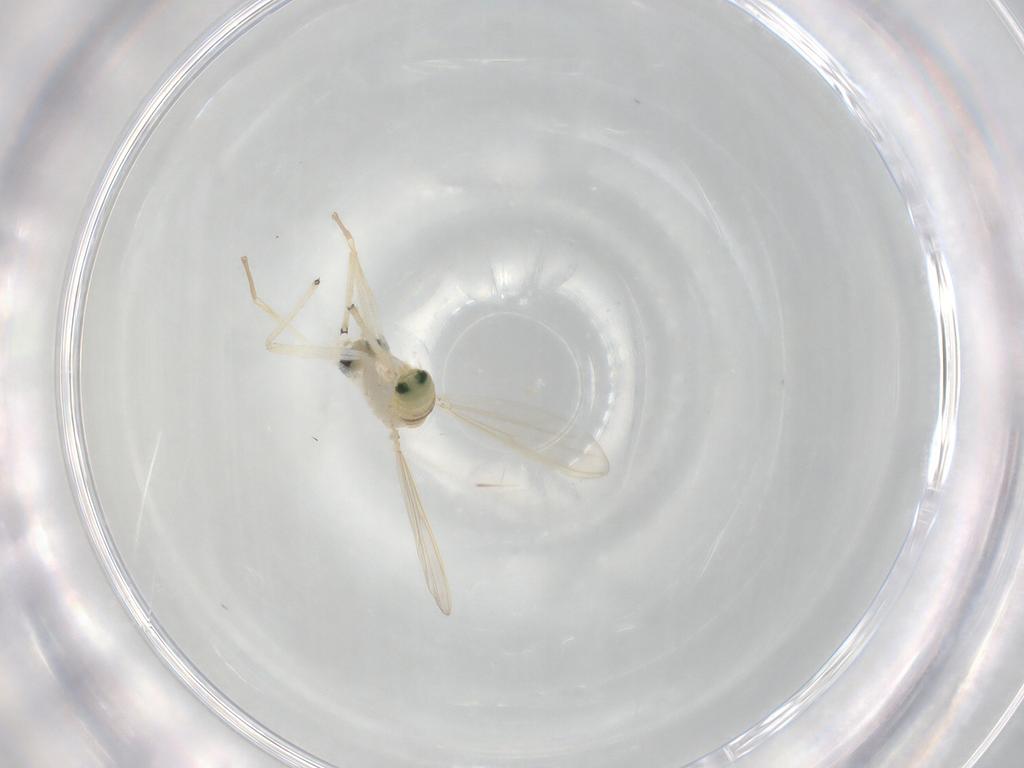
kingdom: Animalia
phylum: Arthropoda
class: Insecta
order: Diptera
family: Chironomidae
